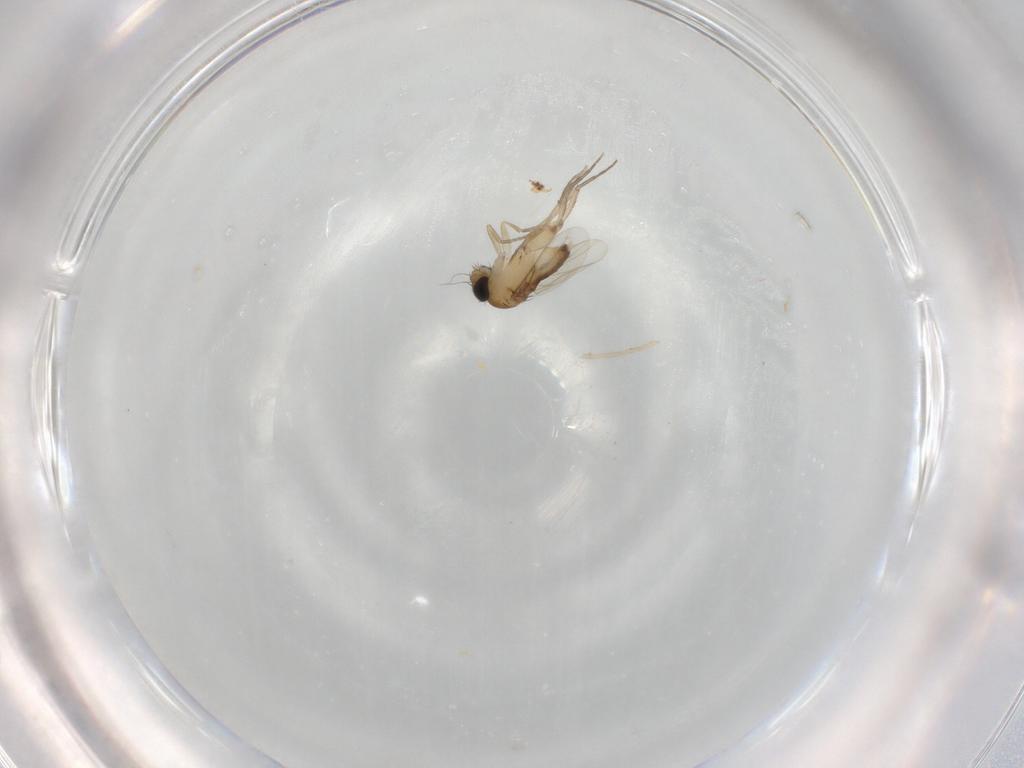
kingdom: Animalia
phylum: Arthropoda
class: Insecta
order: Diptera
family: Phoridae
